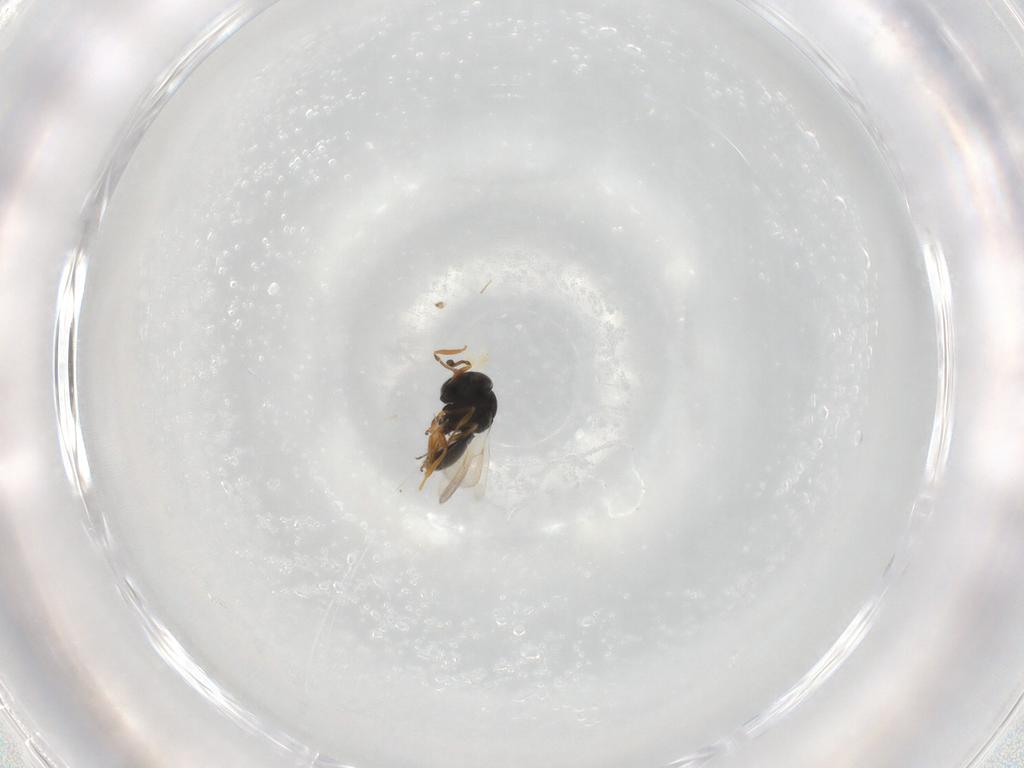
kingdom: Animalia
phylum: Arthropoda
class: Insecta
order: Hymenoptera
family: Scelionidae
